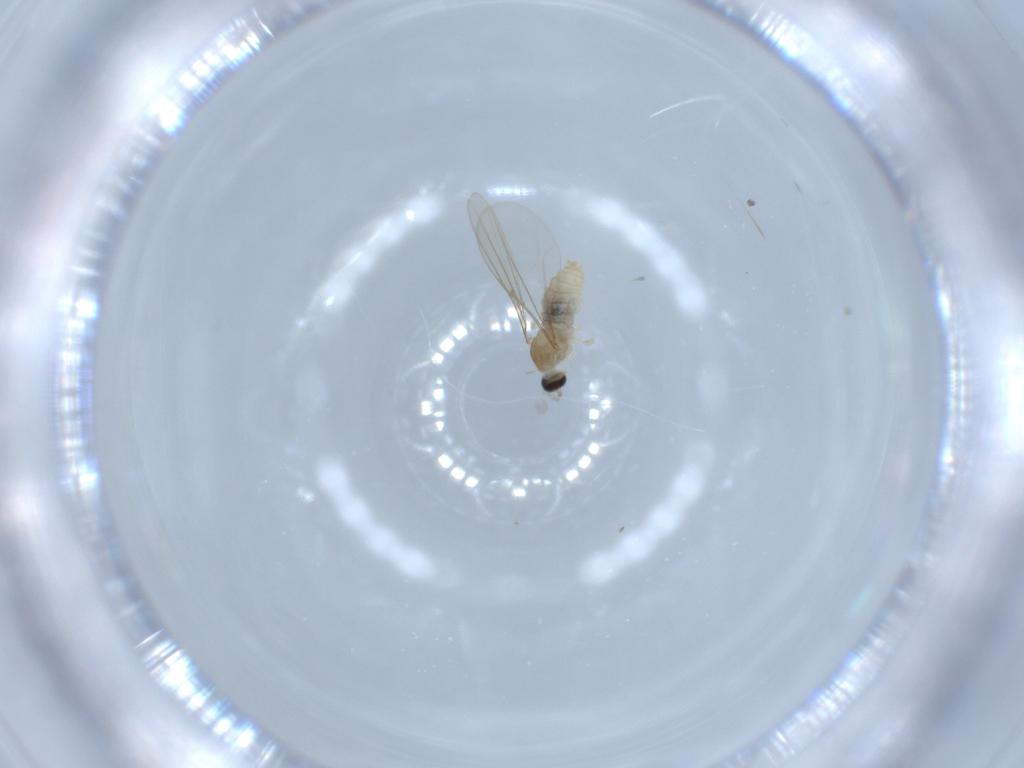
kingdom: Animalia
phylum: Arthropoda
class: Insecta
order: Diptera
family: Cecidomyiidae
